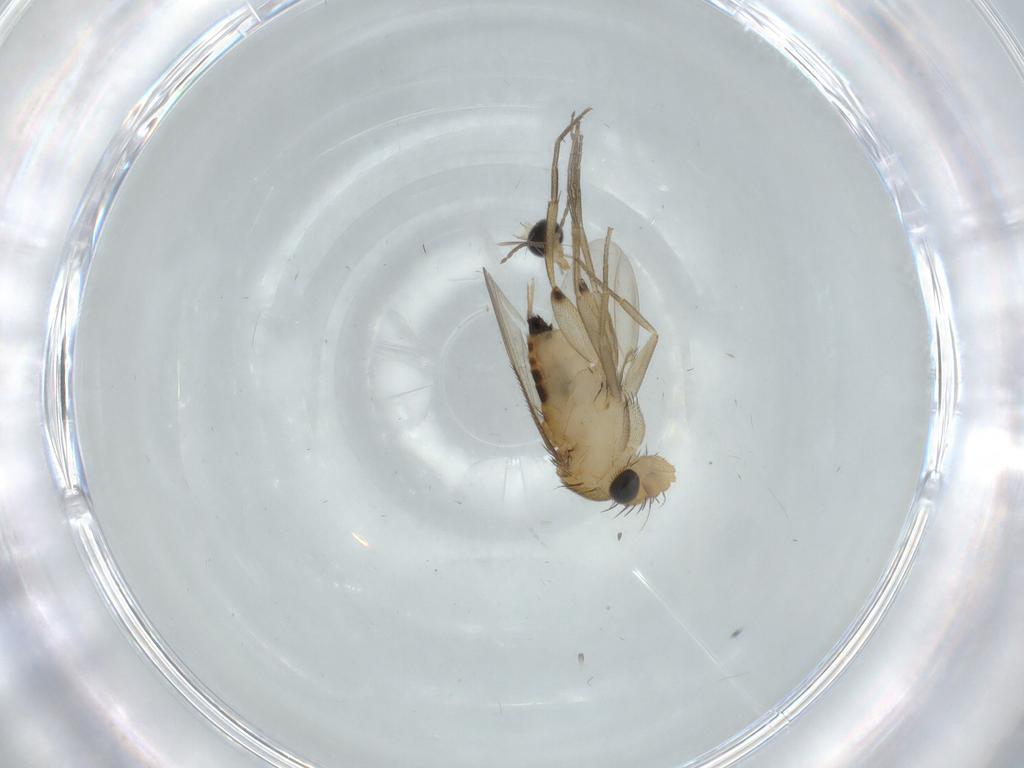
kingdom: Animalia
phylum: Arthropoda
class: Insecta
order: Diptera
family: Phoridae
